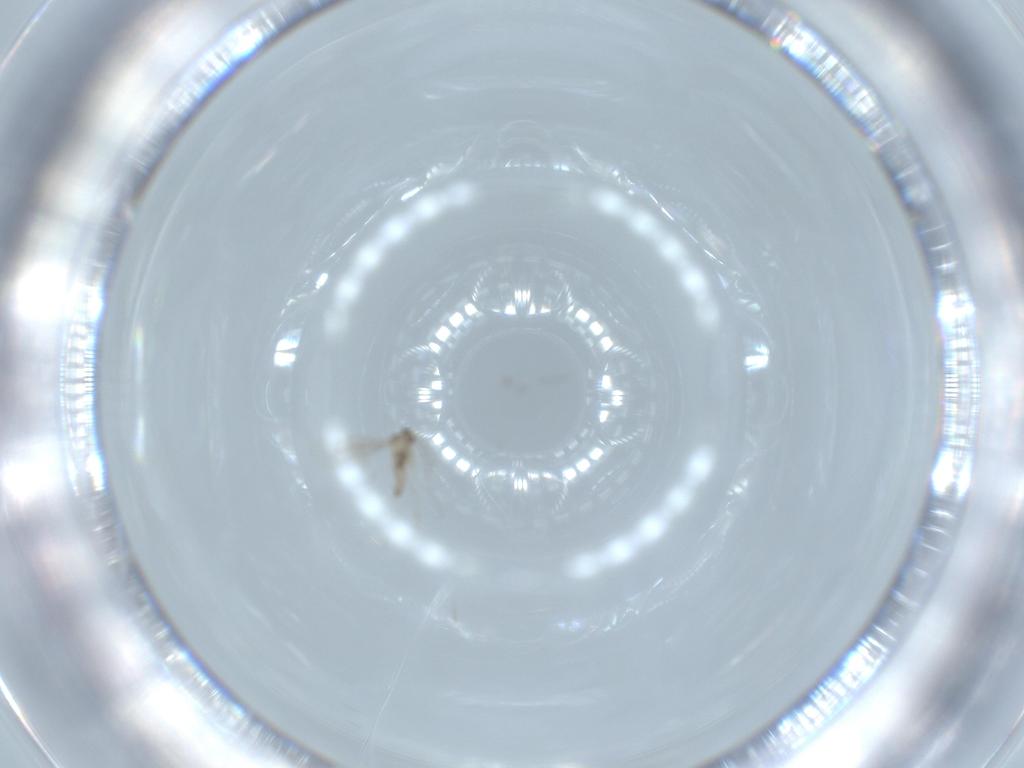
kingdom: Animalia
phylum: Arthropoda
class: Insecta
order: Diptera
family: Cecidomyiidae
